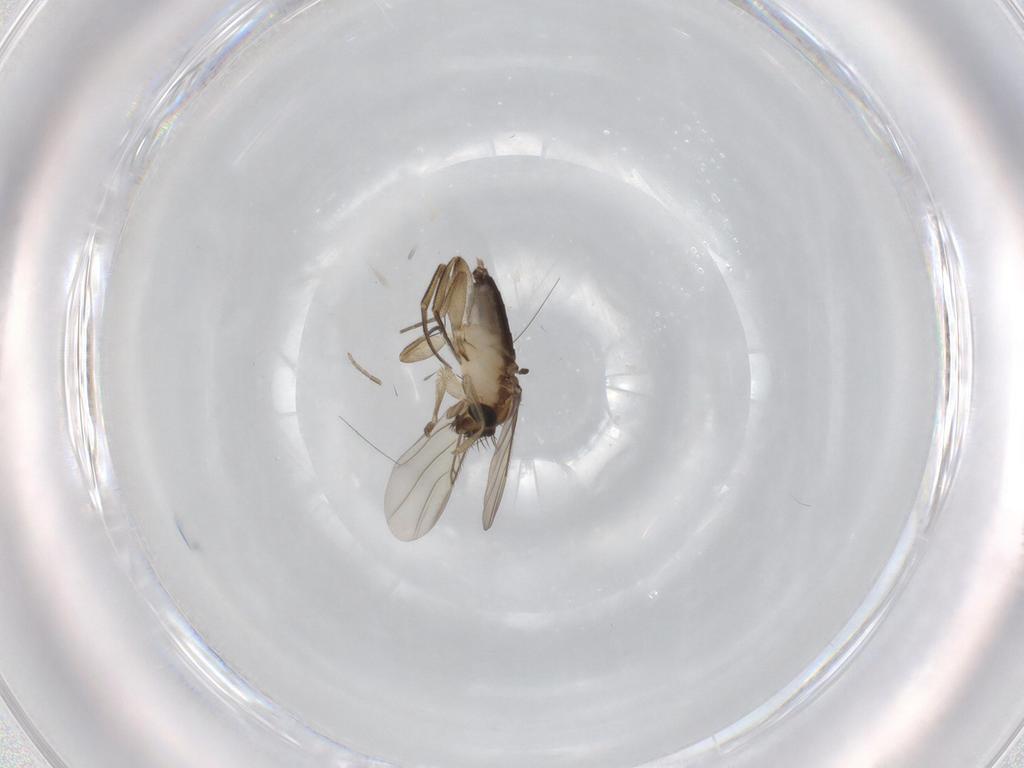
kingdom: Animalia
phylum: Arthropoda
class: Insecta
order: Diptera
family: Phoridae
